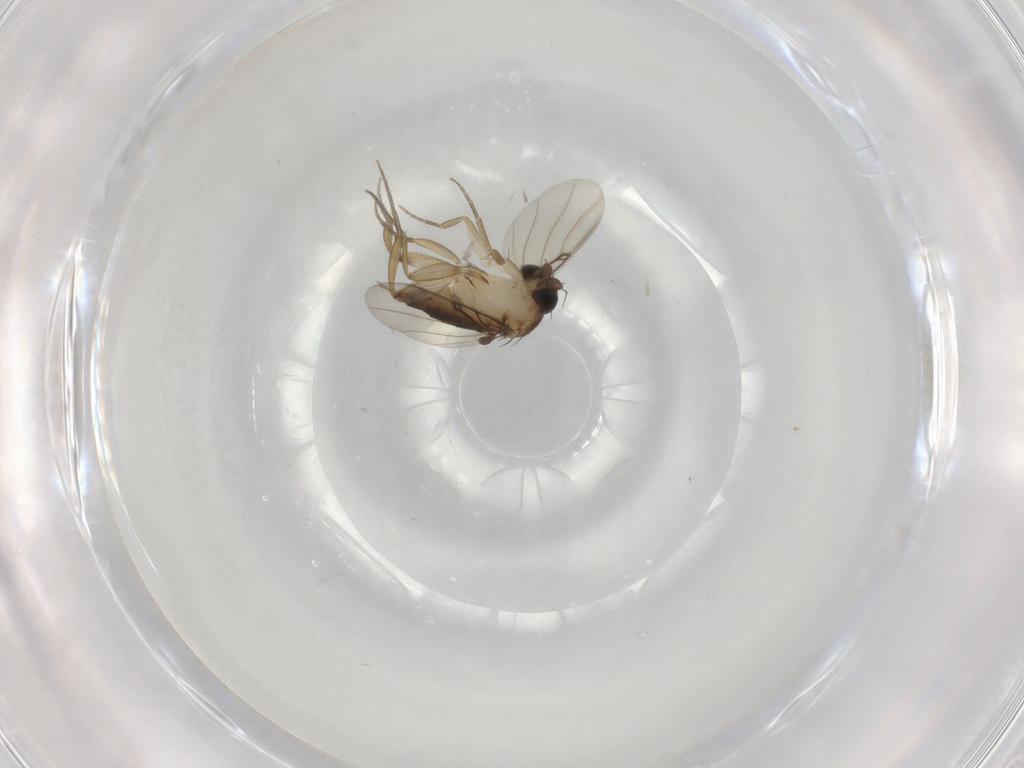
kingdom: Animalia
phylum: Arthropoda
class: Insecta
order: Diptera
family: Phoridae
